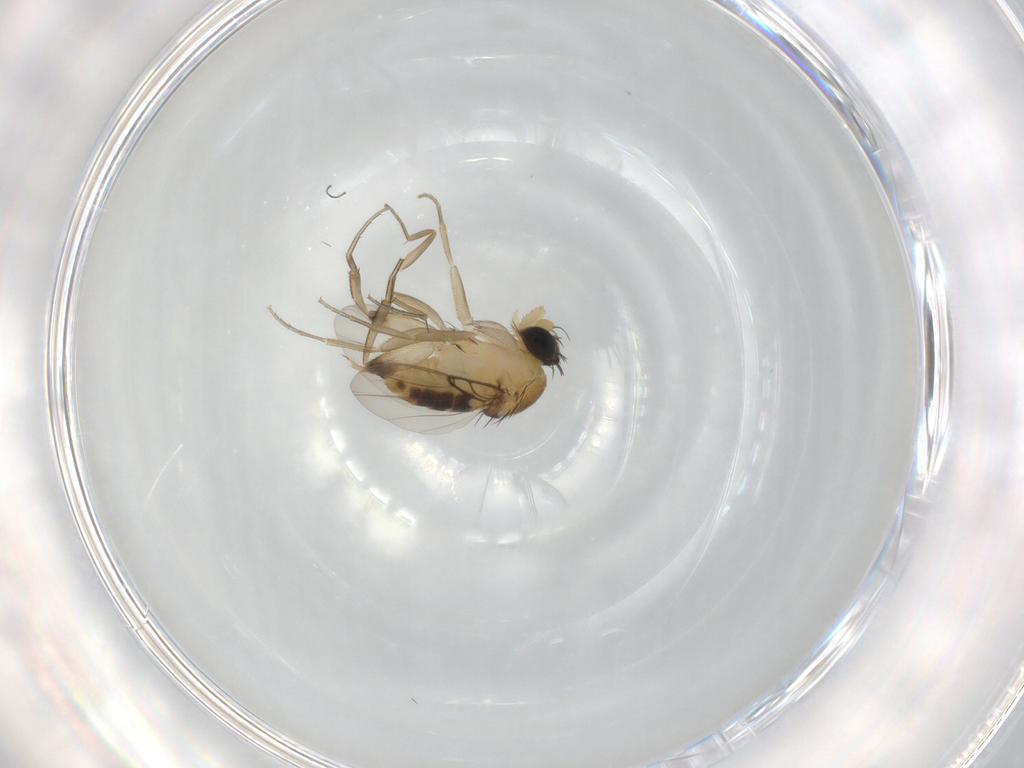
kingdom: Animalia
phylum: Arthropoda
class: Insecta
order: Diptera
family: Phoridae
